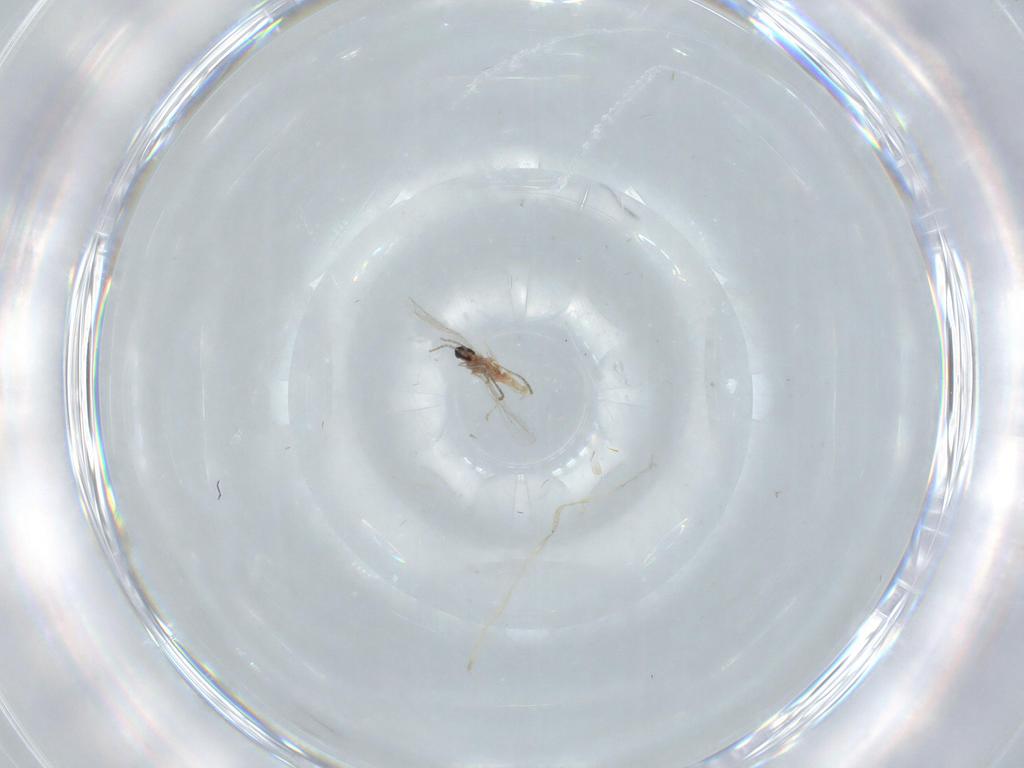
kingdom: Animalia
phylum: Arthropoda
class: Insecta
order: Diptera
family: Cecidomyiidae
